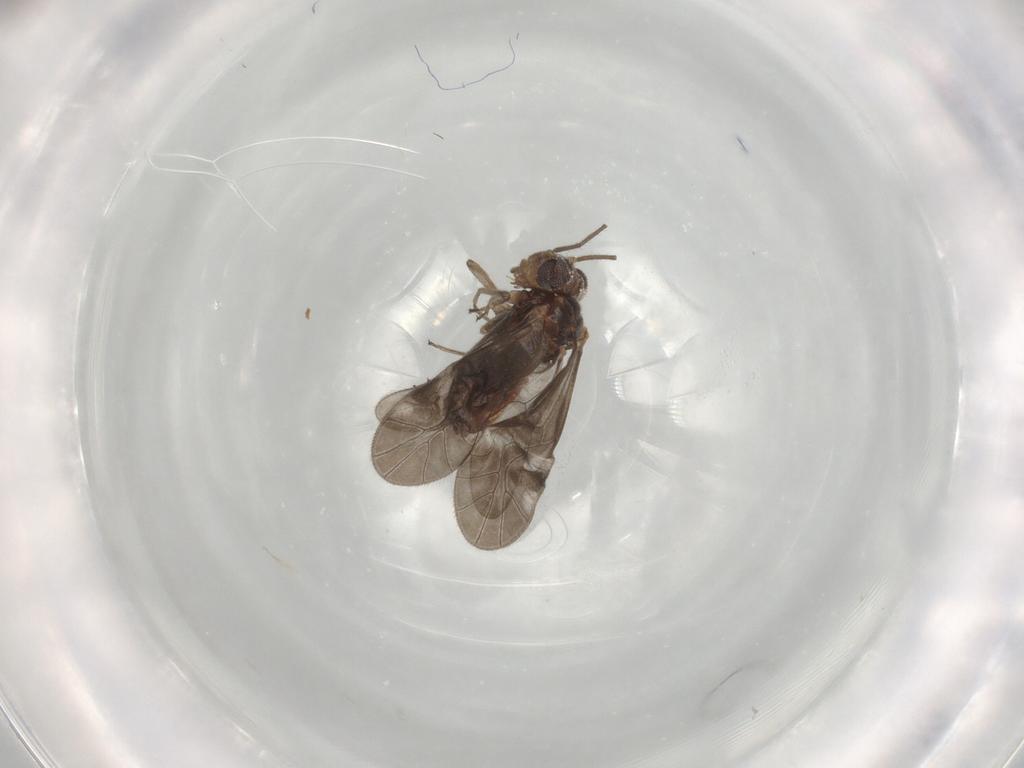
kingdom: Animalia
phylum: Arthropoda
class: Insecta
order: Psocodea
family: Caeciliusidae
